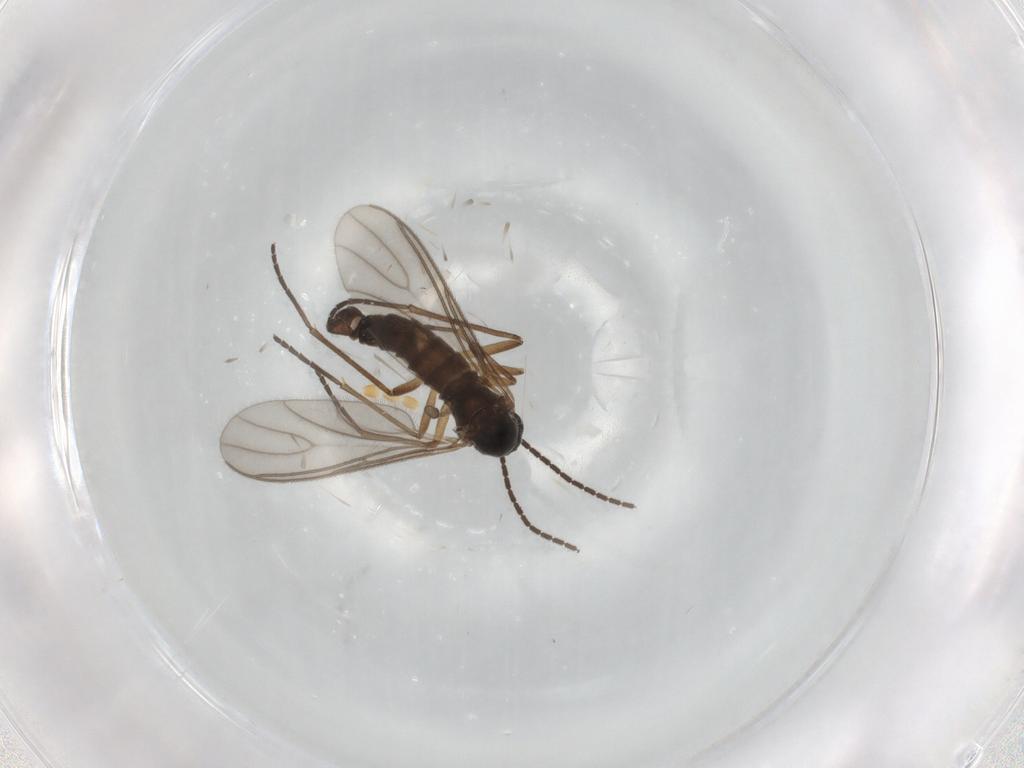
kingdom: Animalia
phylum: Arthropoda
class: Insecta
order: Diptera
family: Sciaridae
